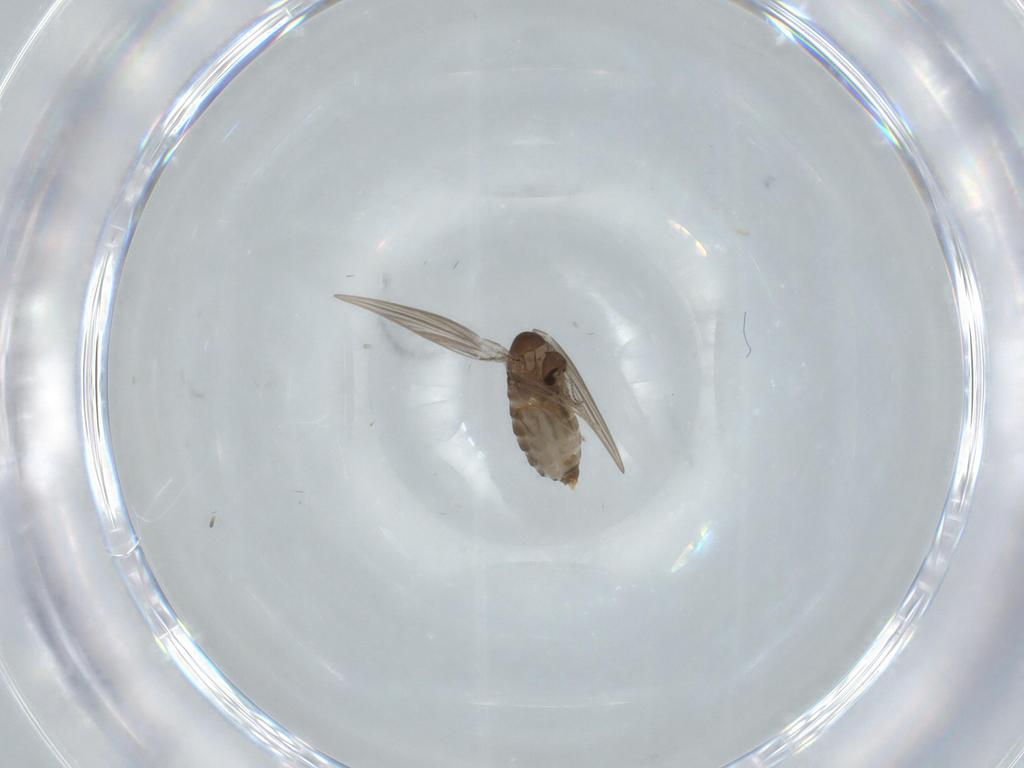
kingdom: Animalia
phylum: Arthropoda
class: Insecta
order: Diptera
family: Psychodidae
